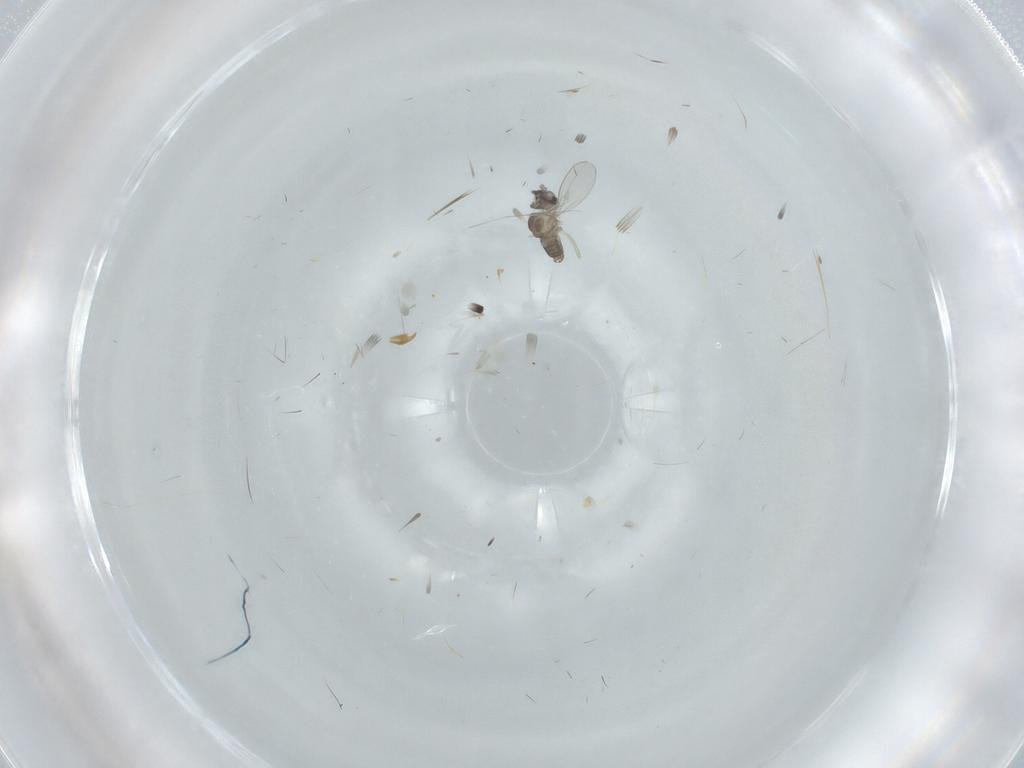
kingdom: Animalia
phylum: Arthropoda
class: Insecta
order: Diptera
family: Cecidomyiidae
